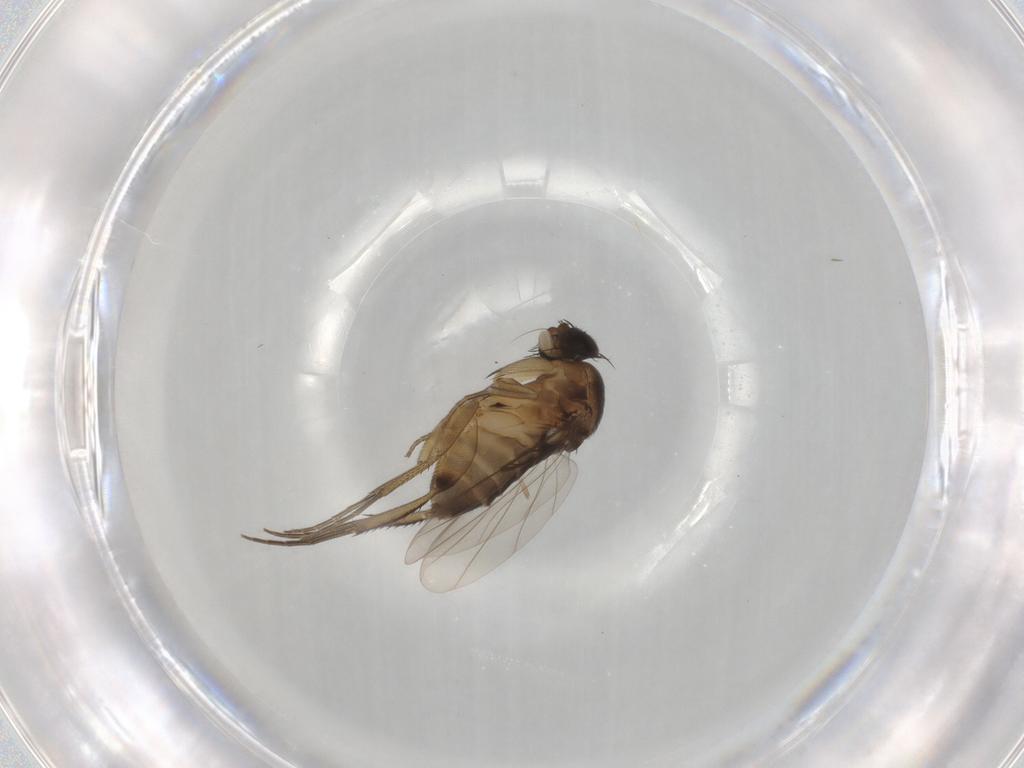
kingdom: Animalia
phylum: Arthropoda
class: Insecta
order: Diptera
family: Phoridae
